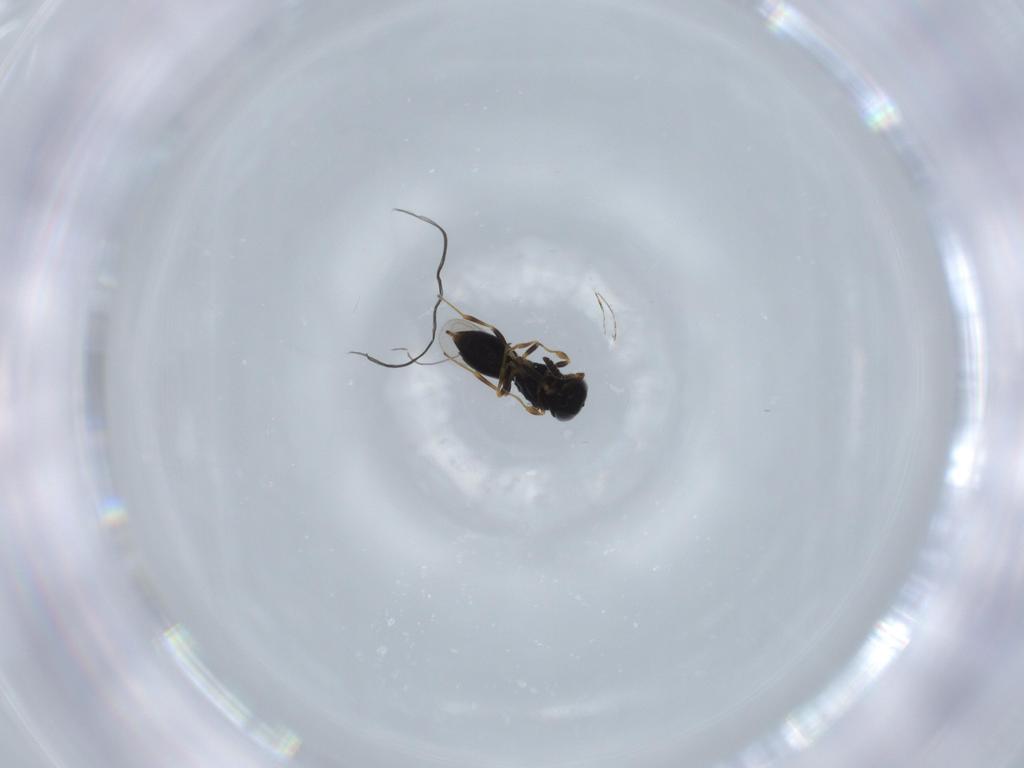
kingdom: Animalia
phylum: Arthropoda
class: Insecta
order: Hymenoptera
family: Scelionidae
